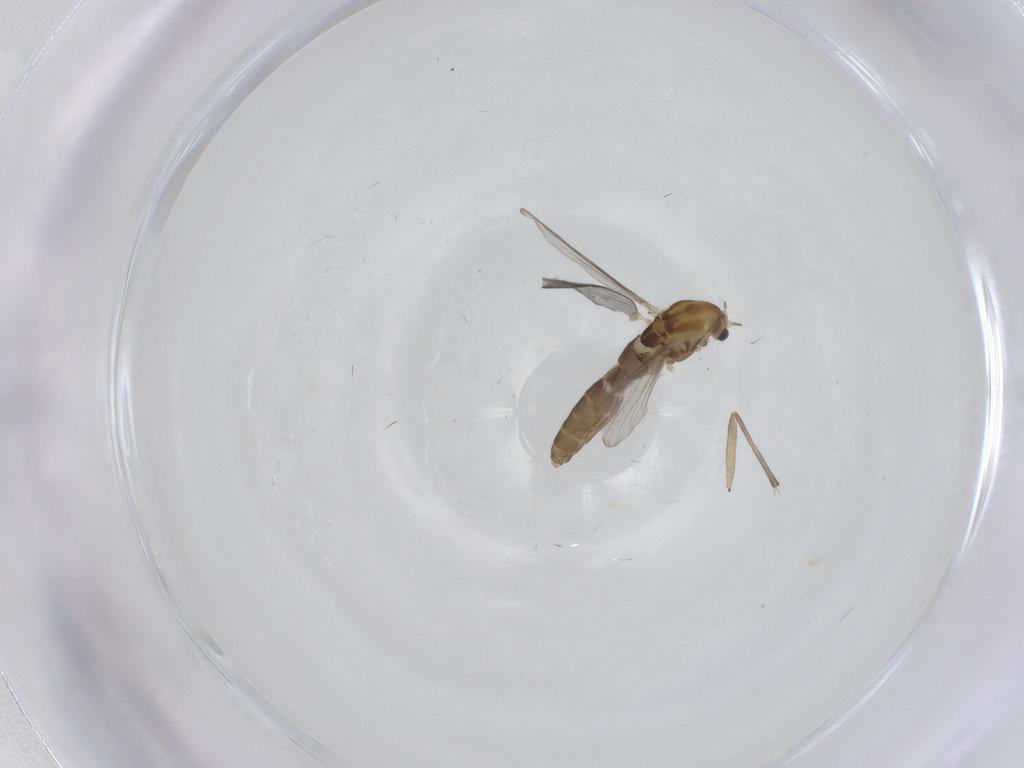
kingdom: Animalia
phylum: Arthropoda
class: Insecta
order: Diptera
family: Chironomidae
